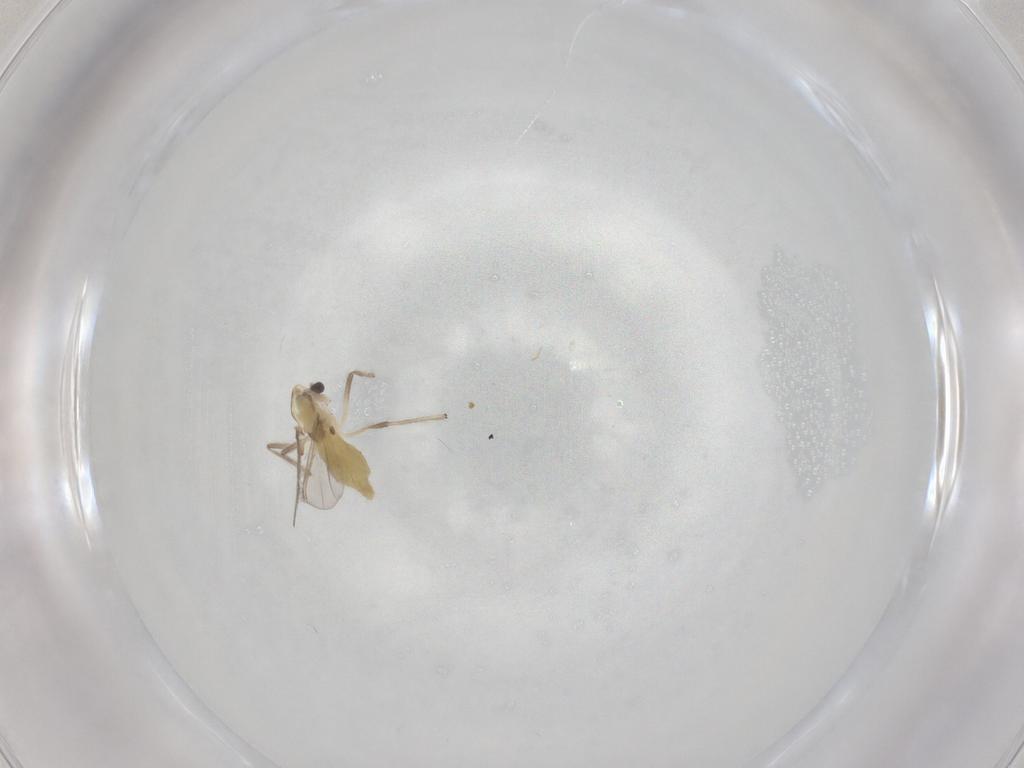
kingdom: Animalia
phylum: Arthropoda
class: Insecta
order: Diptera
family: Chironomidae
